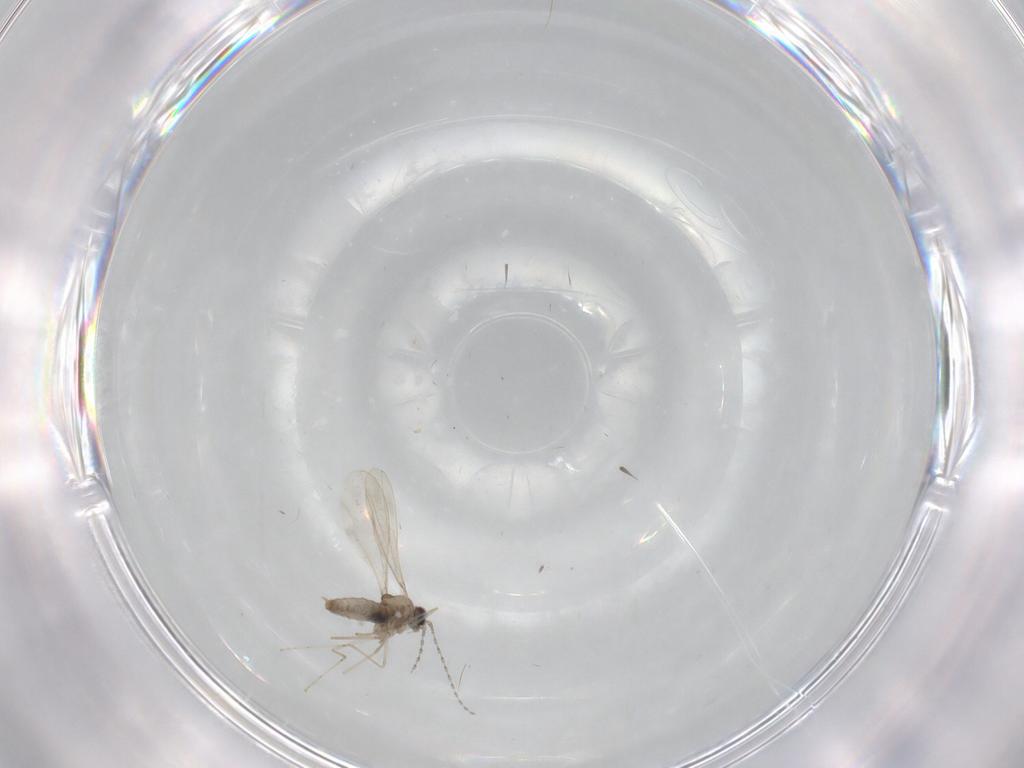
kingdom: Animalia
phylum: Arthropoda
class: Insecta
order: Diptera
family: Cecidomyiidae
